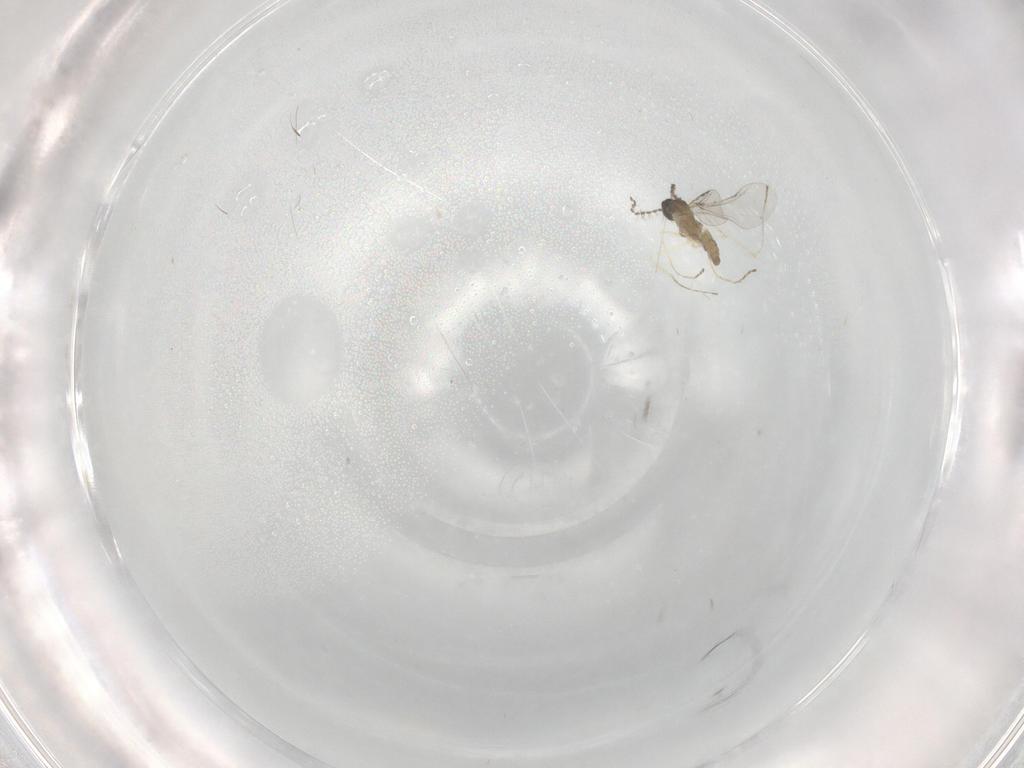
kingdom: Animalia
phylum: Arthropoda
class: Insecta
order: Diptera
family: Cecidomyiidae
